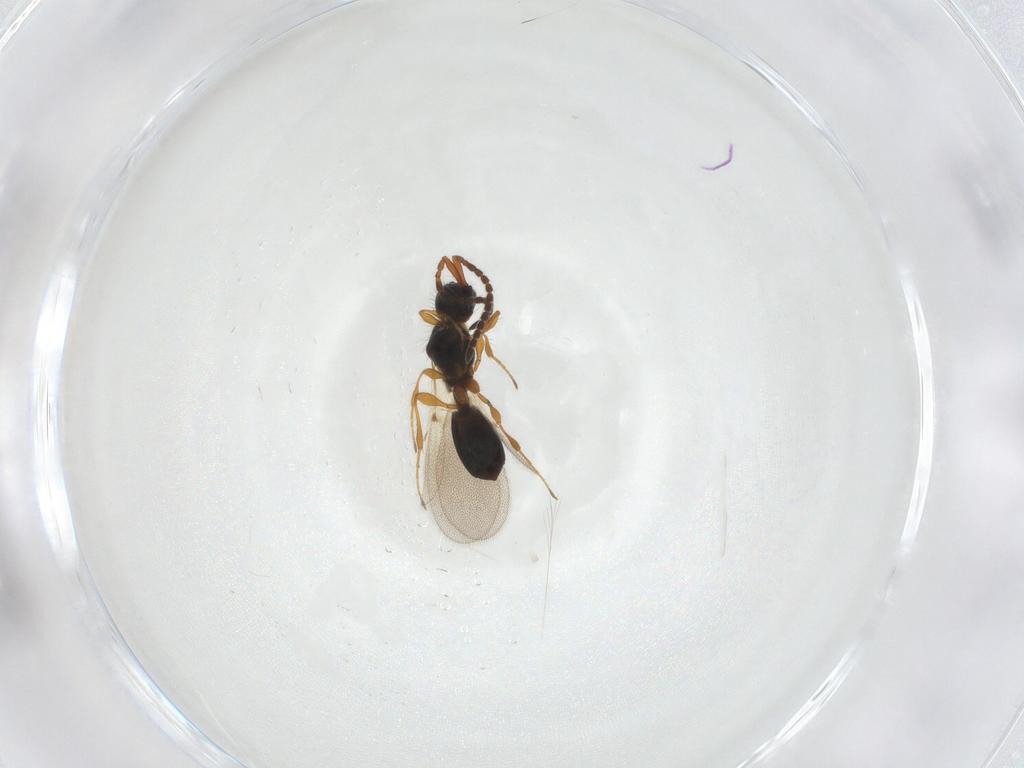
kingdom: Animalia
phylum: Arthropoda
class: Insecta
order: Hymenoptera
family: Diapriidae
